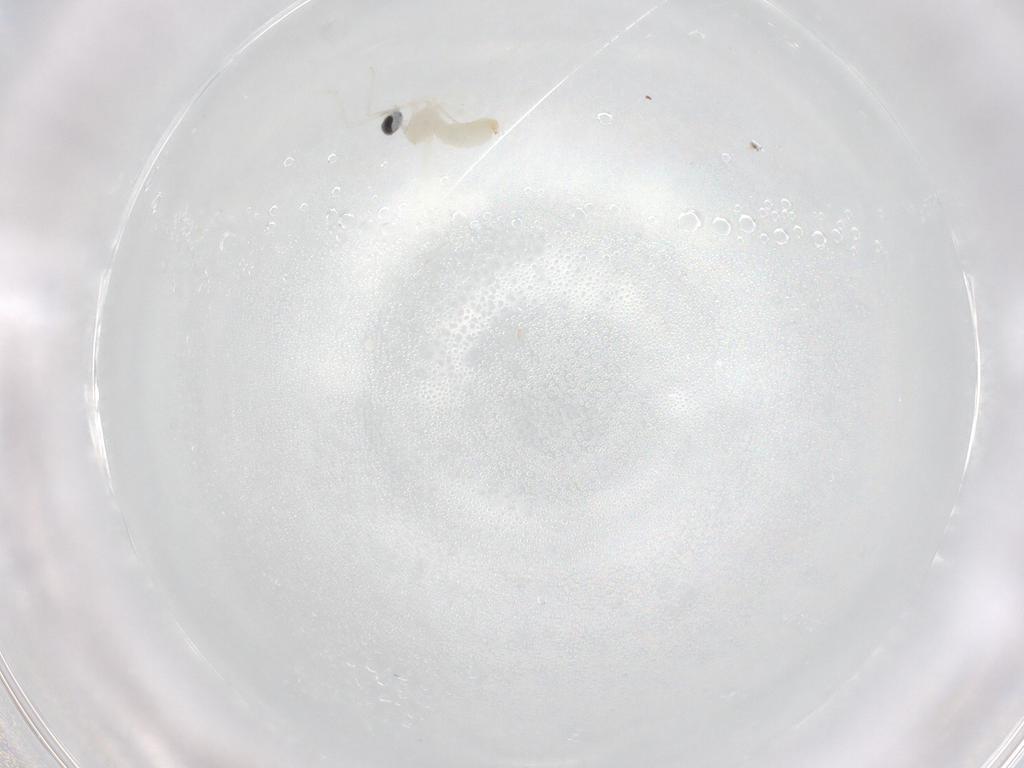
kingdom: Animalia
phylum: Arthropoda
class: Insecta
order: Diptera
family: Cecidomyiidae
